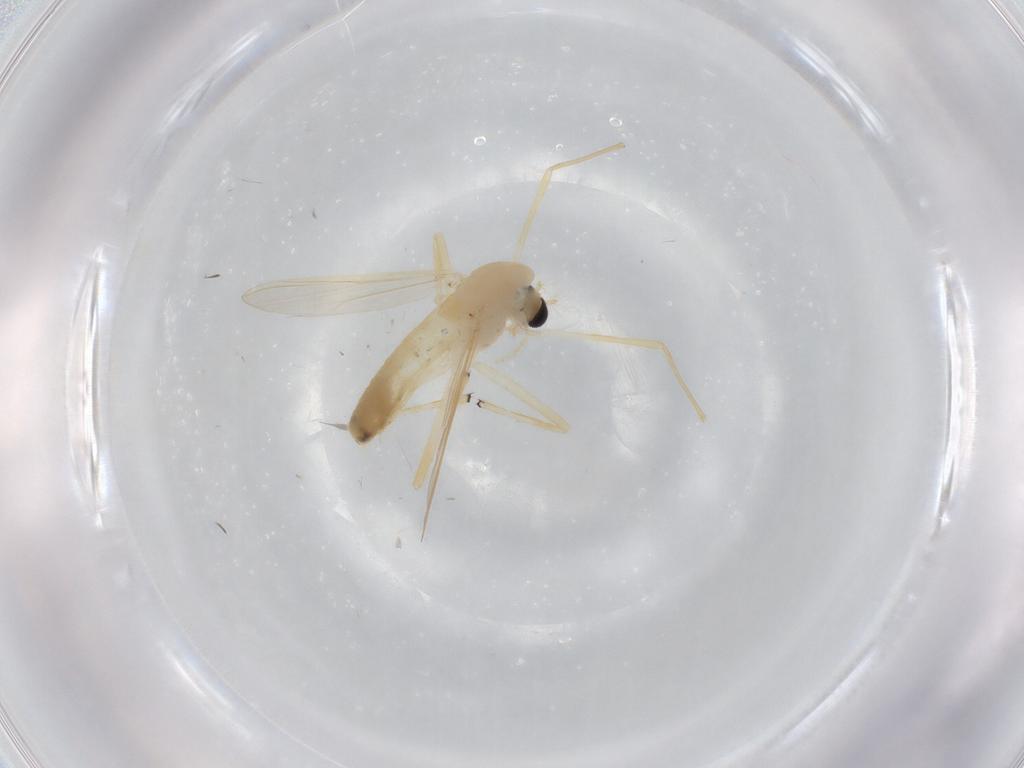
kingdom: Animalia
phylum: Arthropoda
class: Insecta
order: Diptera
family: Chironomidae
